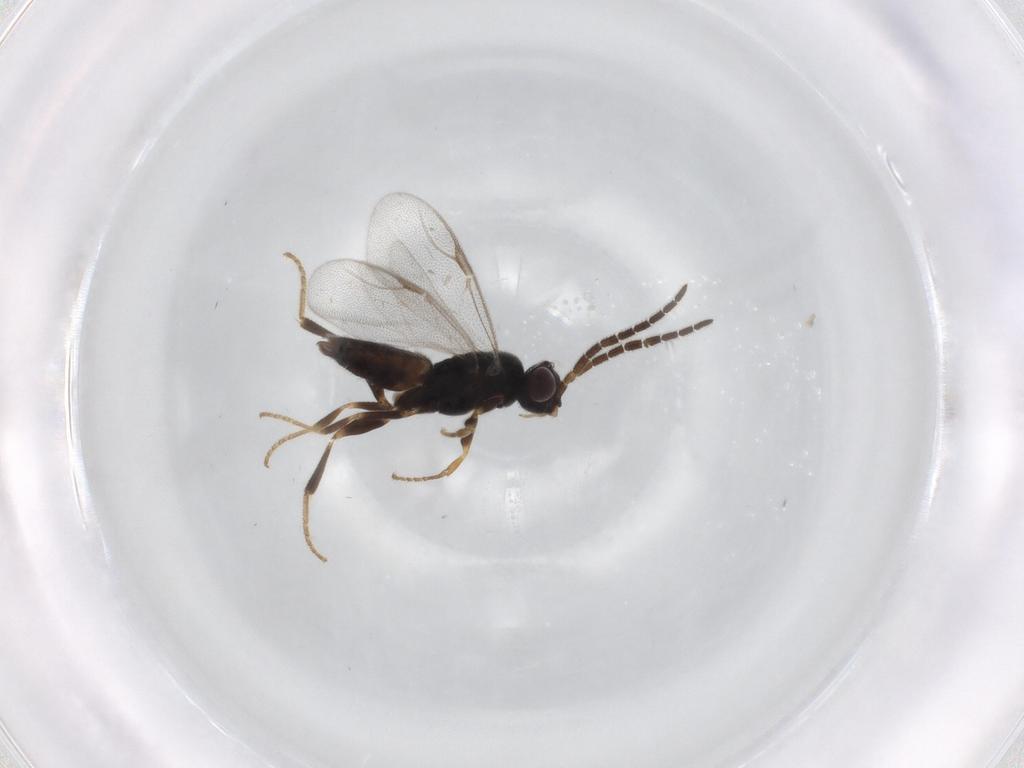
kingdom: Animalia
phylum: Arthropoda
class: Insecta
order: Hymenoptera
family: Dryinidae
